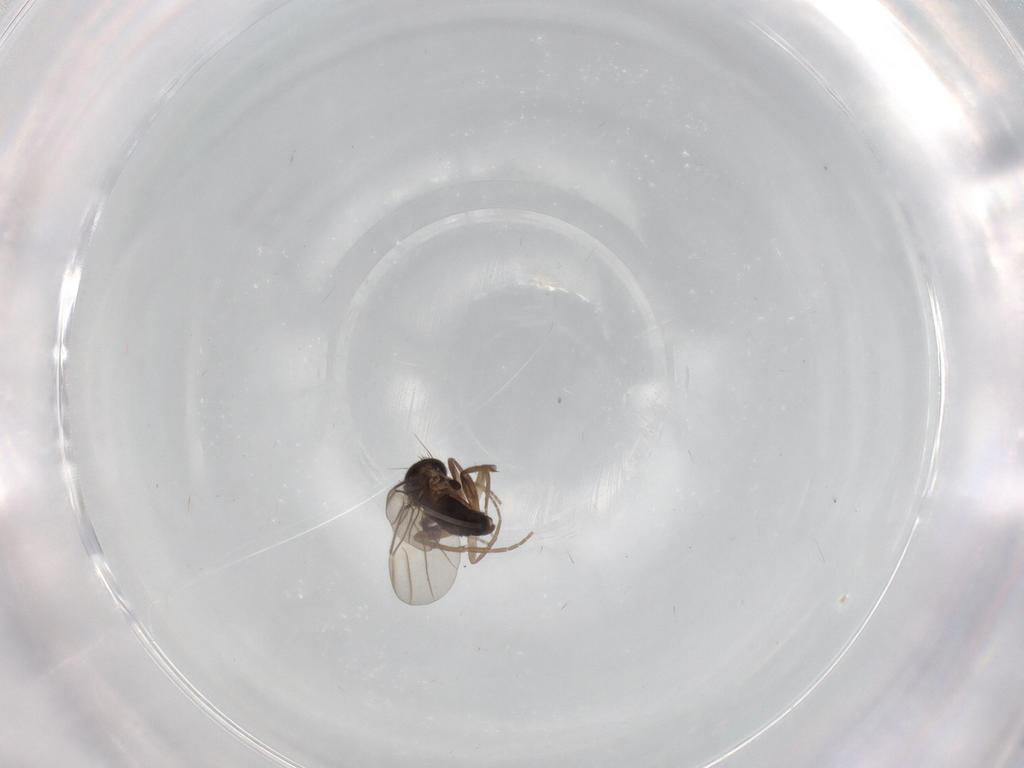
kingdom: Animalia
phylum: Arthropoda
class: Insecta
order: Diptera
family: Phoridae
